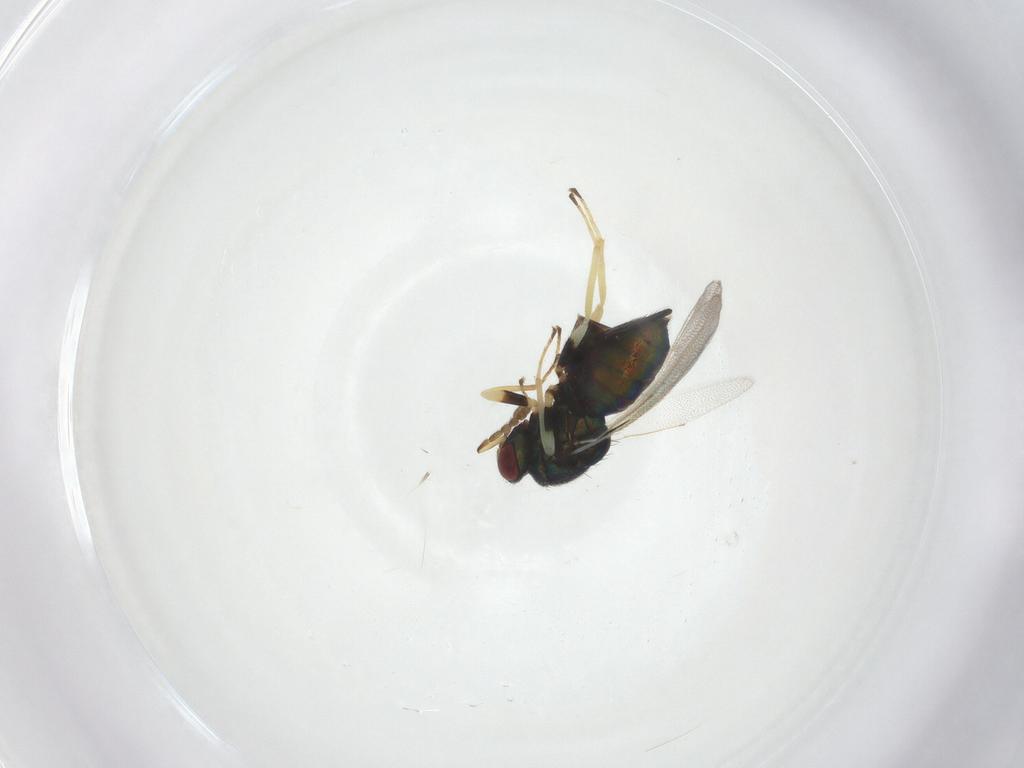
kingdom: Animalia
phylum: Arthropoda
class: Insecta
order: Hymenoptera
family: Eulophidae
